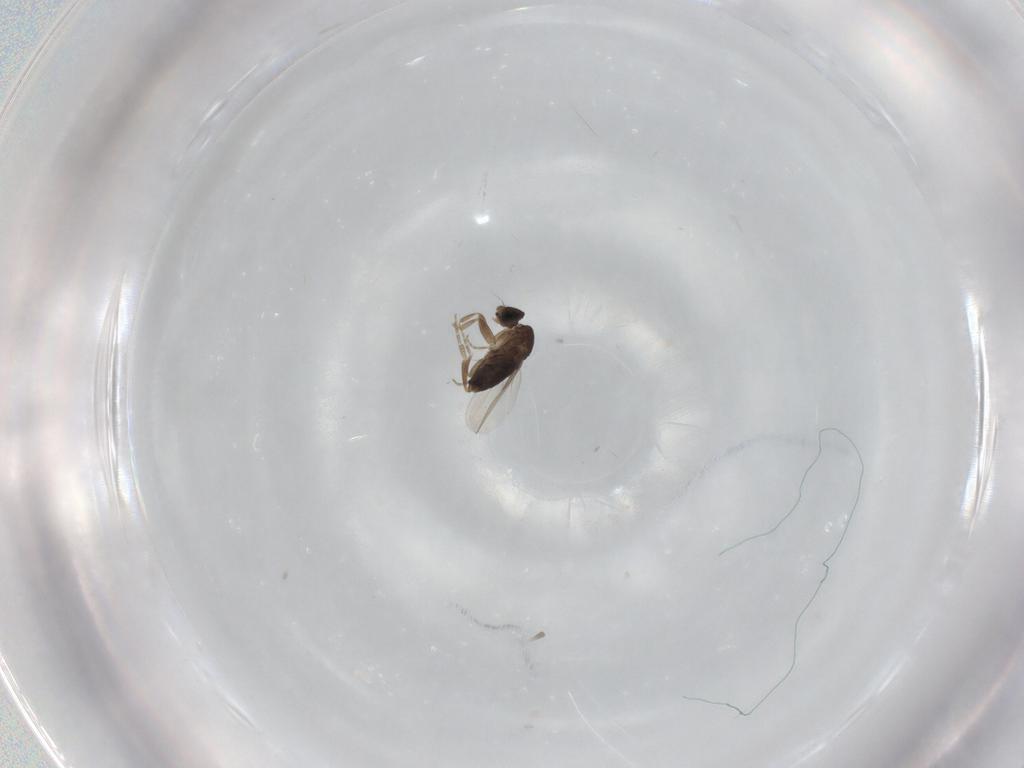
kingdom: Animalia
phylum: Arthropoda
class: Insecta
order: Diptera
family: Phoridae
